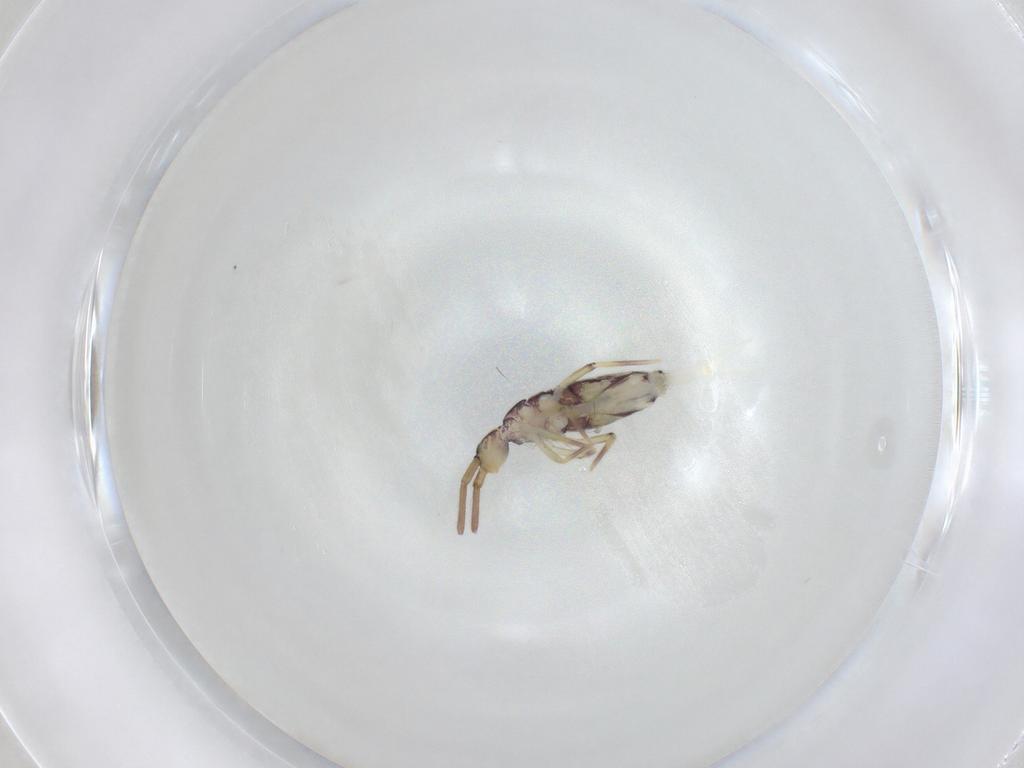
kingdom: Animalia
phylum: Arthropoda
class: Collembola
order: Entomobryomorpha
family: Entomobryidae
